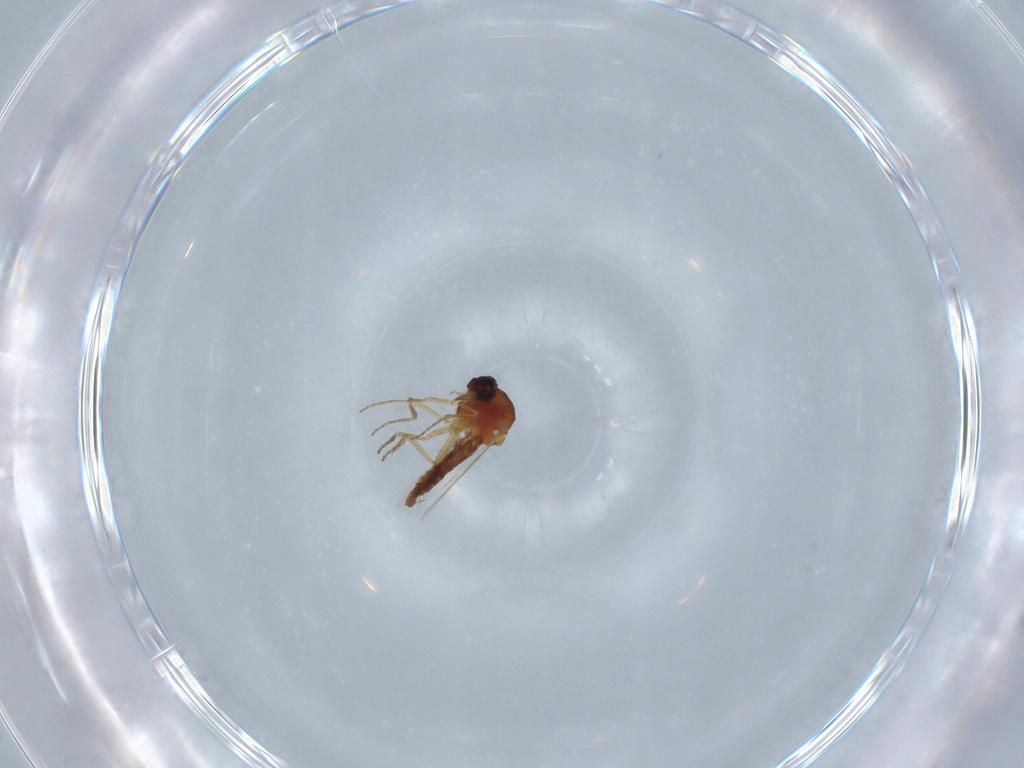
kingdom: Animalia
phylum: Arthropoda
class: Insecta
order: Diptera
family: Ceratopogonidae
